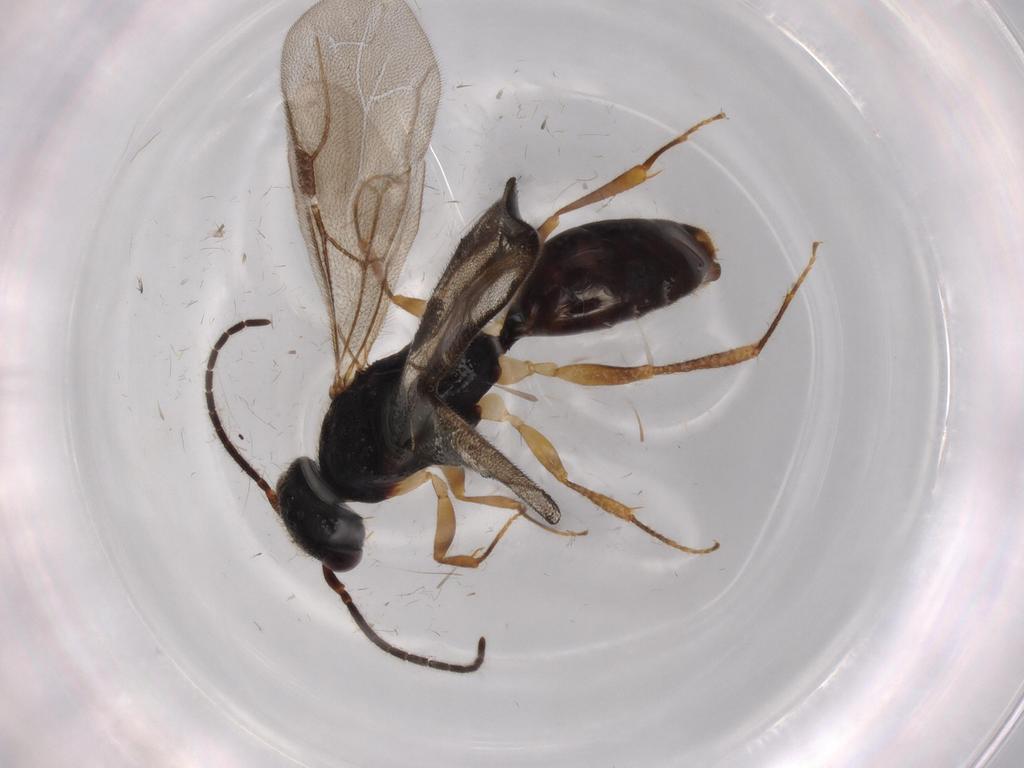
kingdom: Animalia
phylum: Arthropoda
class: Insecta
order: Hymenoptera
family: Bethylidae
